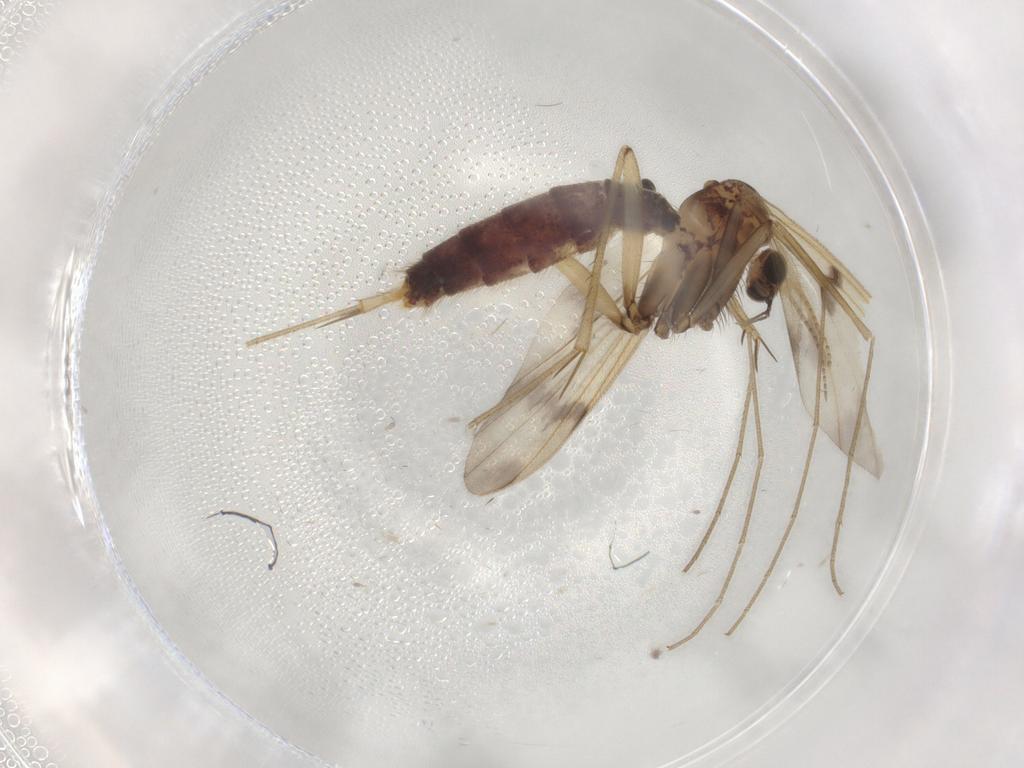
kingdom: Animalia
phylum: Arthropoda
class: Insecta
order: Diptera
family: Mycetophilidae
